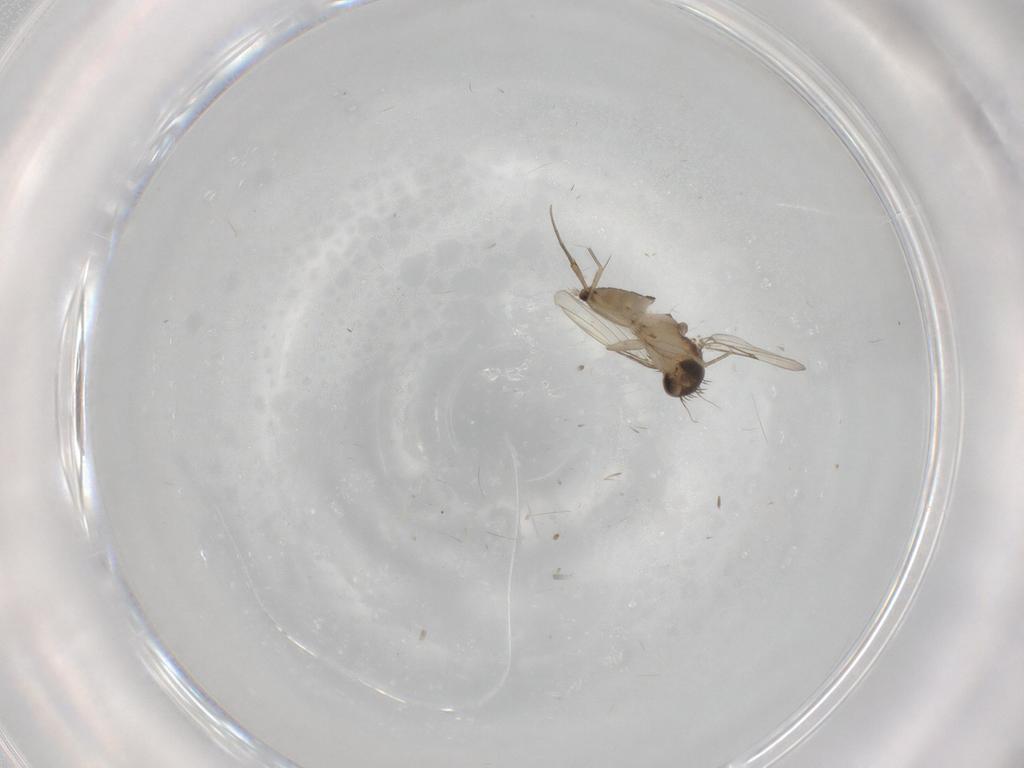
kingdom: Animalia
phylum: Arthropoda
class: Insecta
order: Diptera
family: Phoridae
